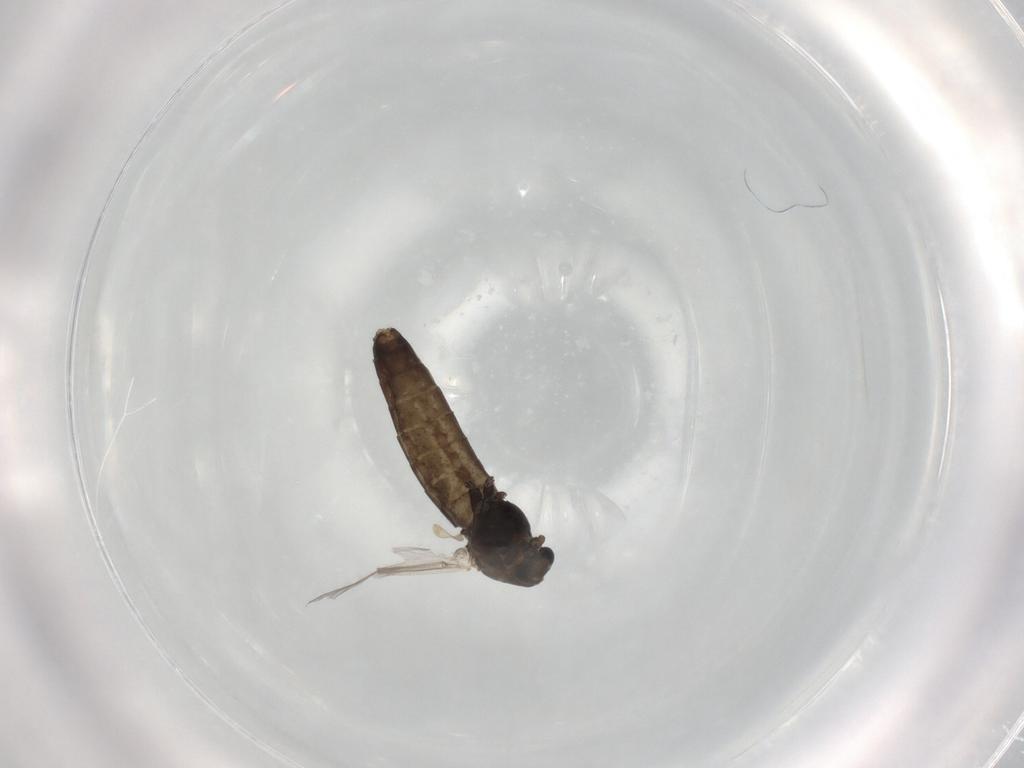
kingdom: Animalia
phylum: Arthropoda
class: Insecta
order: Diptera
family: Chironomidae
